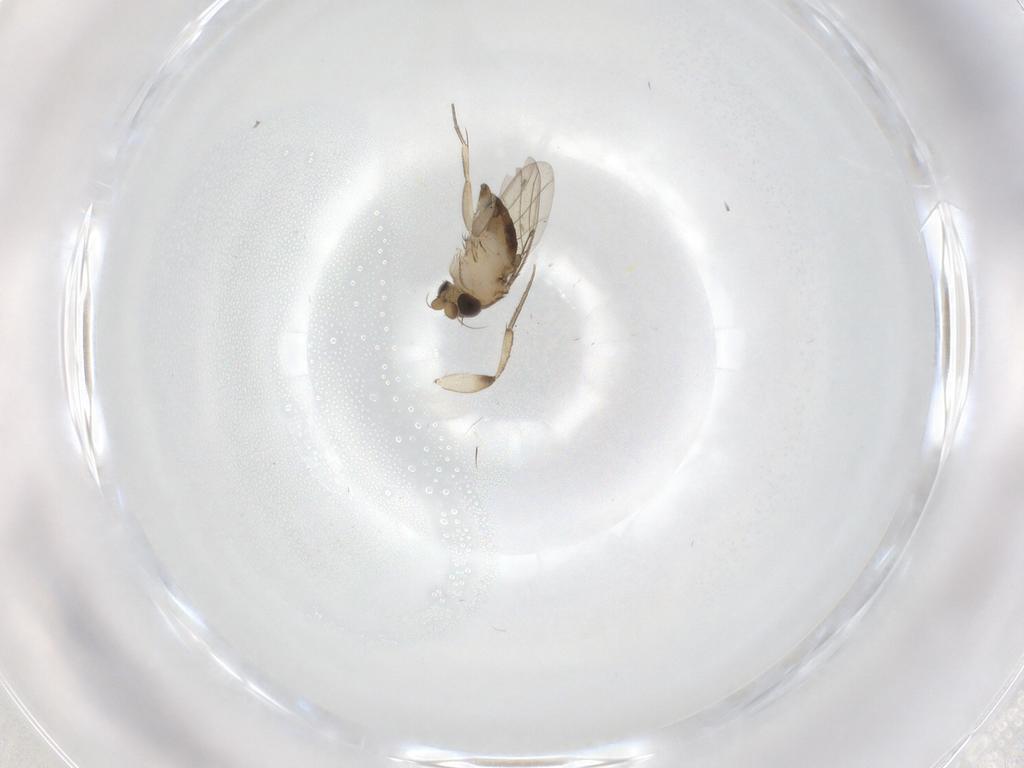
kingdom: Animalia
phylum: Arthropoda
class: Insecta
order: Diptera
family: Phoridae
